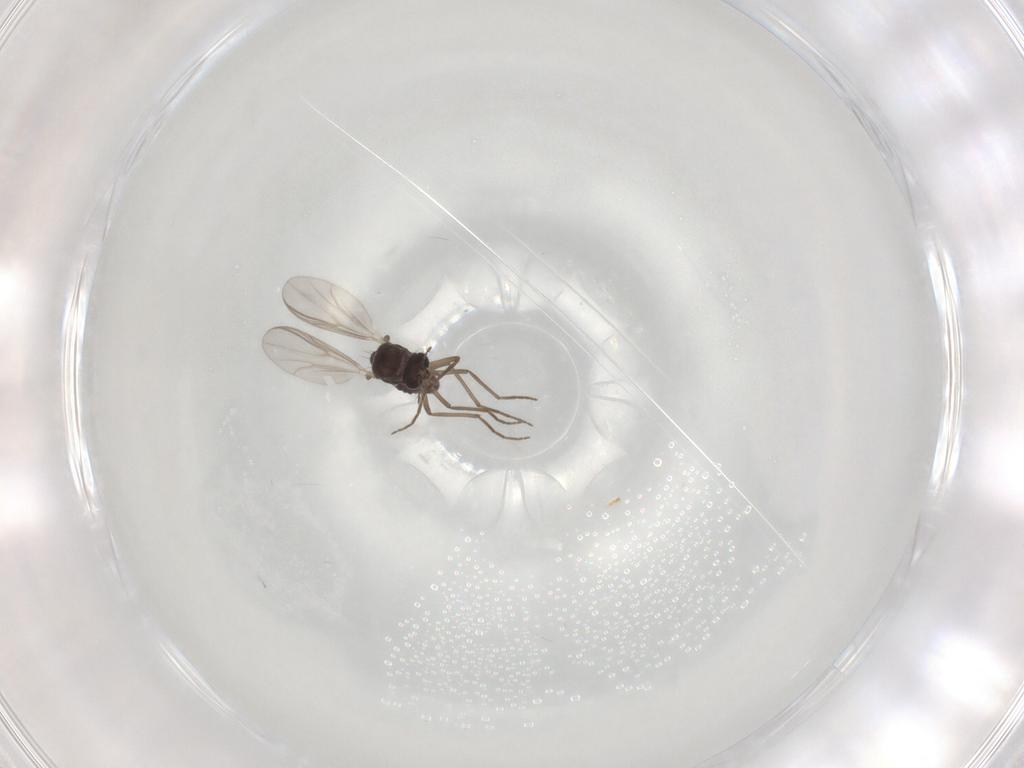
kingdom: Animalia
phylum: Arthropoda
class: Insecta
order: Diptera
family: Chironomidae
